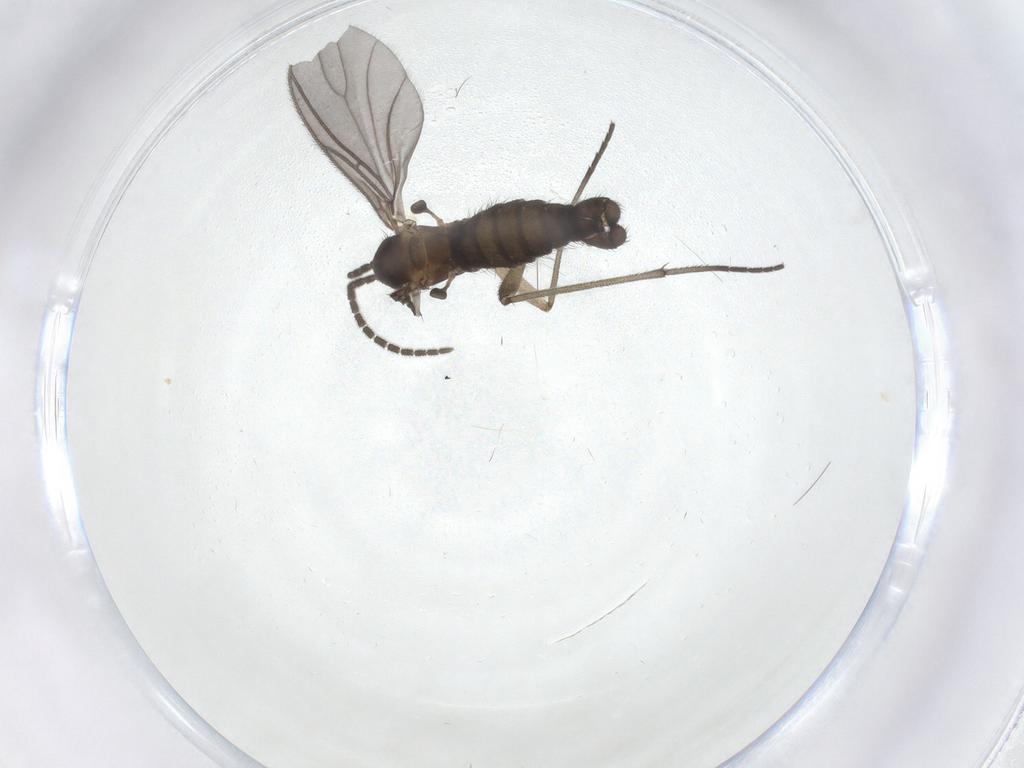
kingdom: Animalia
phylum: Arthropoda
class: Insecta
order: Diptera
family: Sciaridae
